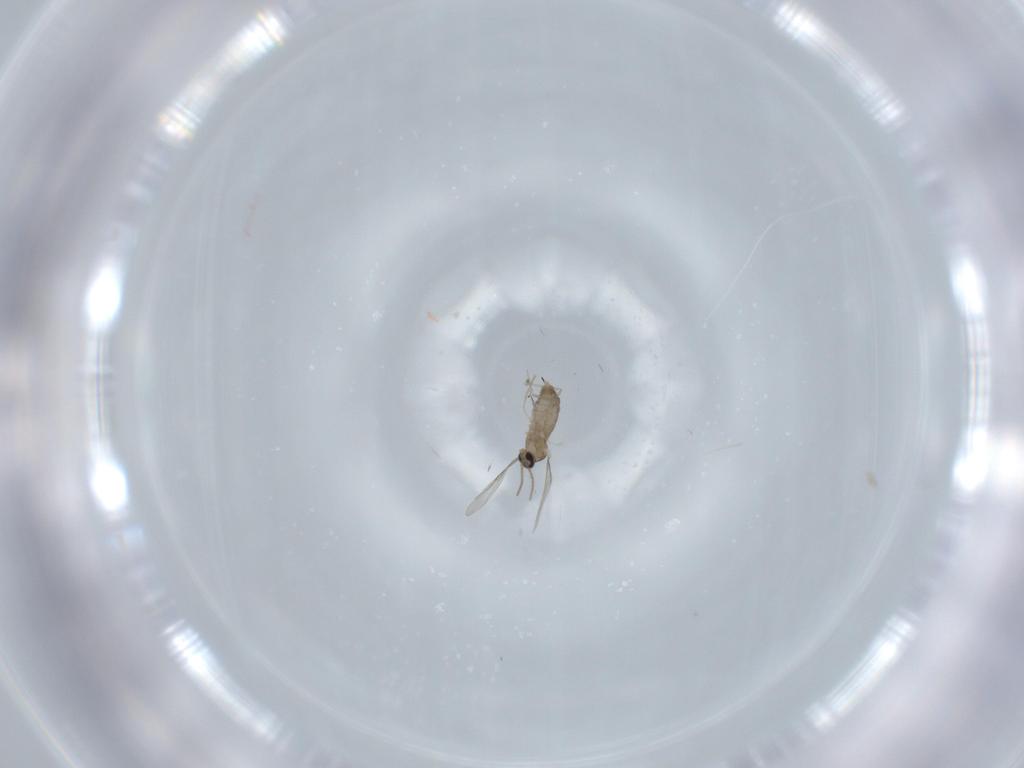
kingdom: Animalia
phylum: Arthropoda
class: Insecta
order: Diptera
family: Cecidomyiidae
